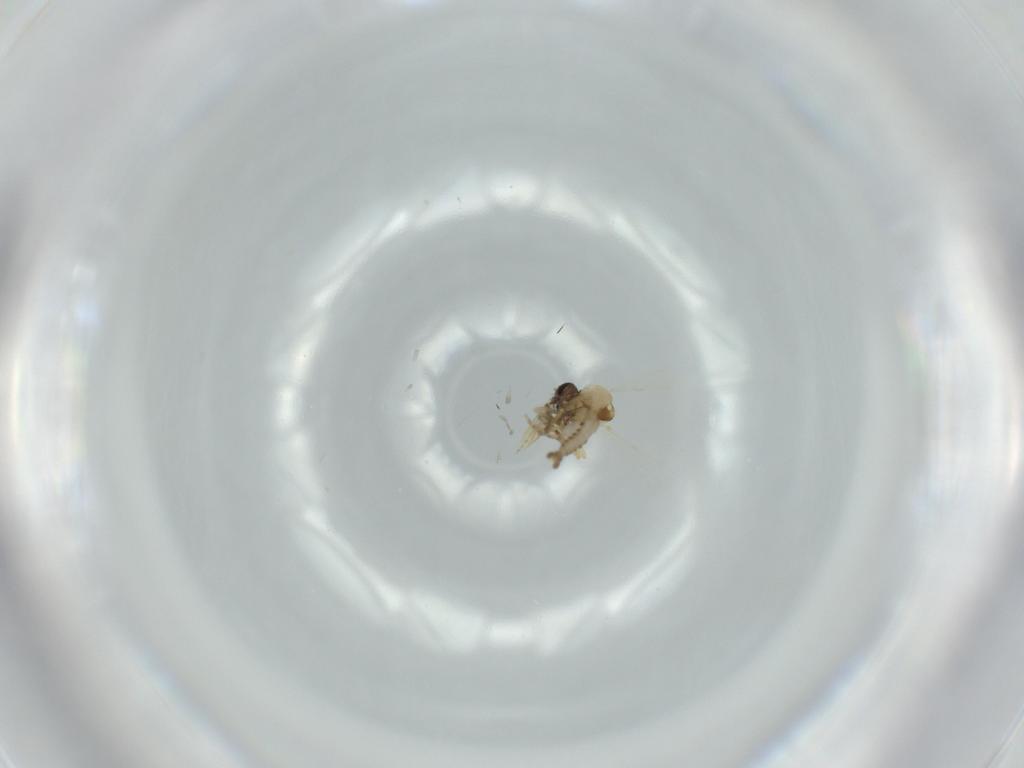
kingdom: Animalia
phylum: Arthropoda
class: Insecta
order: Diptera
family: Ceratopogonidae
